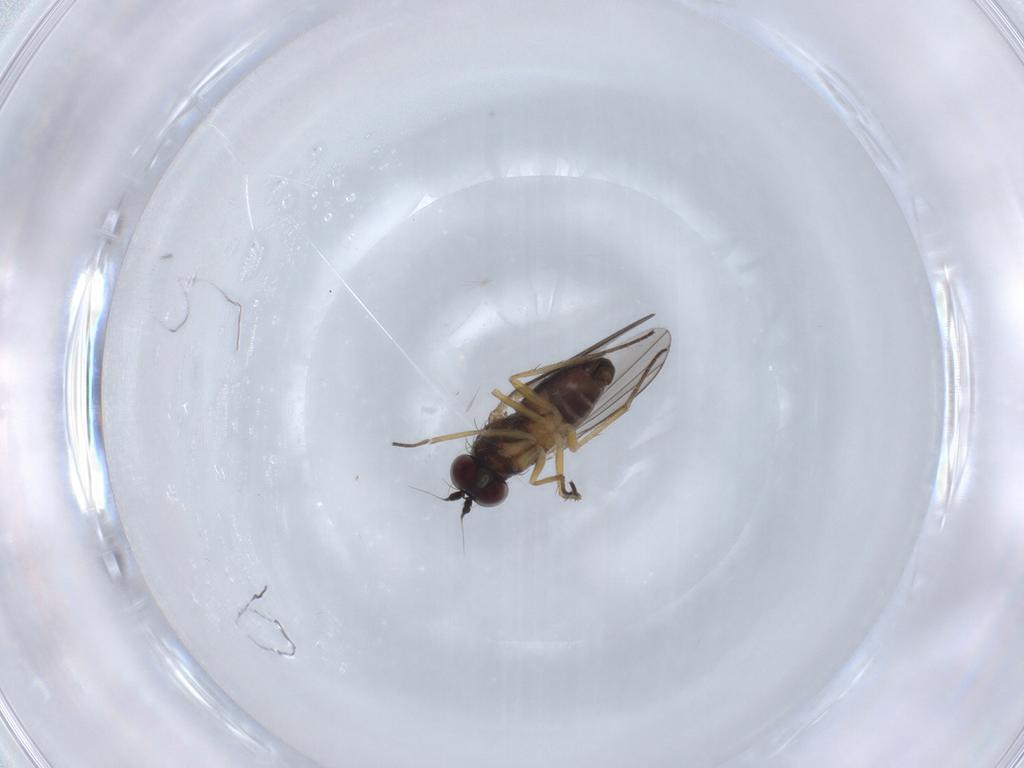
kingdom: Animalia
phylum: Arthropoda
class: Insecta
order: Diptera
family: Dolichopodidae
